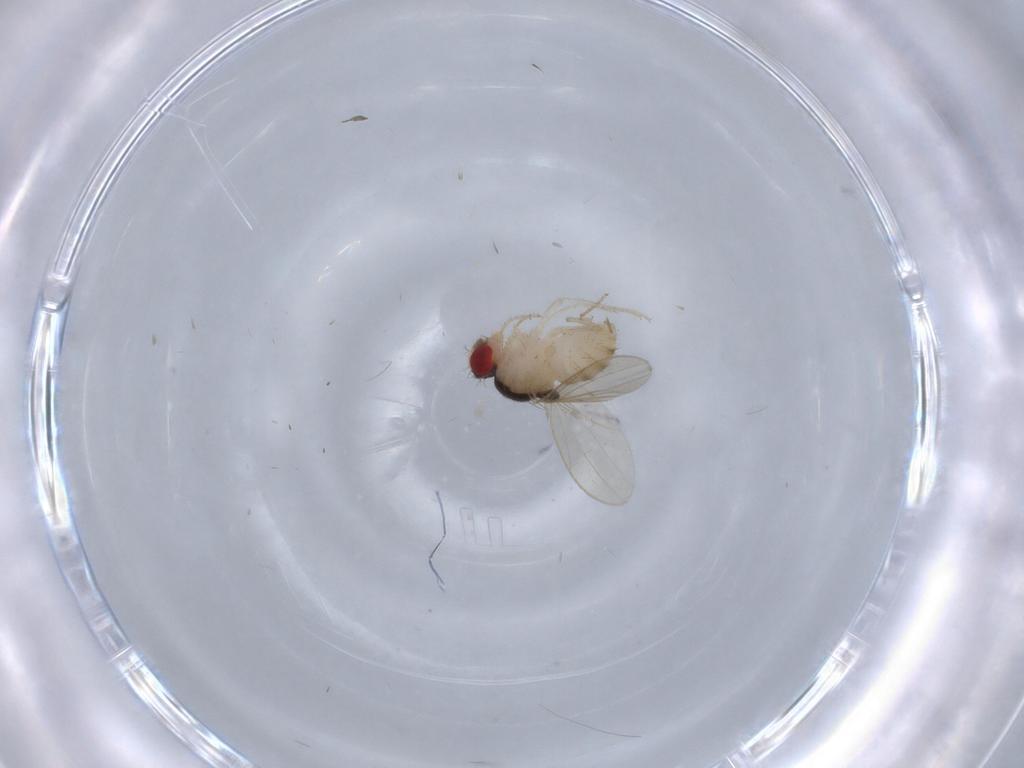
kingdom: Animalia
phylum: Arthropoda
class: Insecta
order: Diptera
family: Drosophilidae
